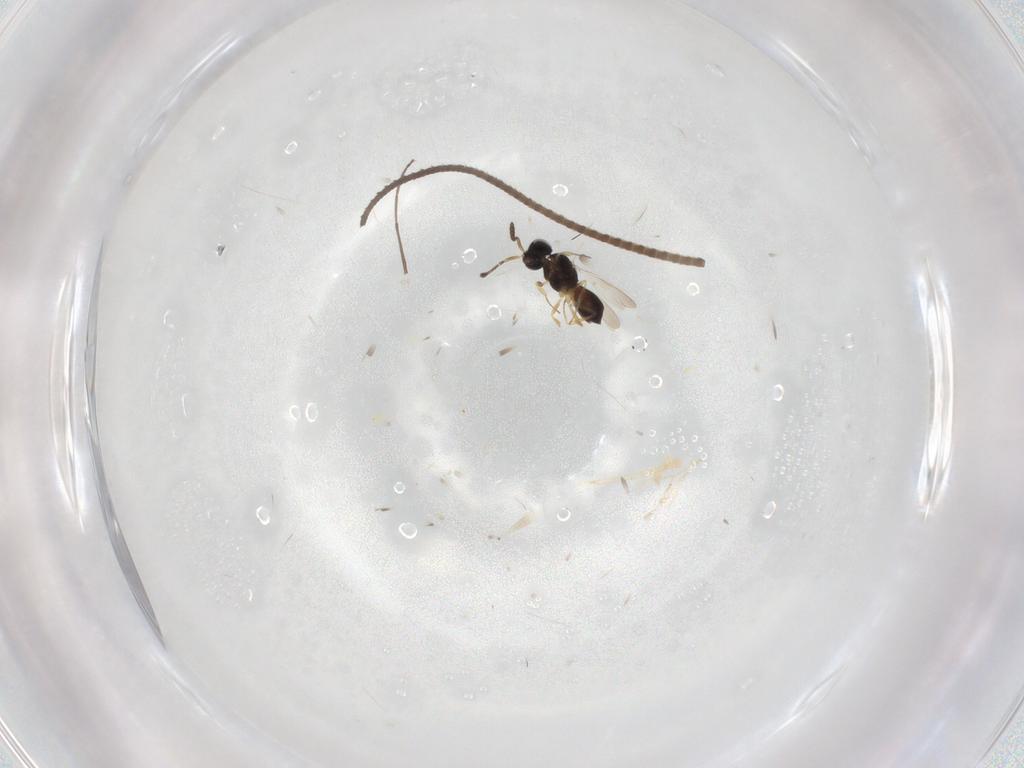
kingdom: Animalia
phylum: Arthropoda
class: Insecta
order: Hymenoptera
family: Scelionidae
